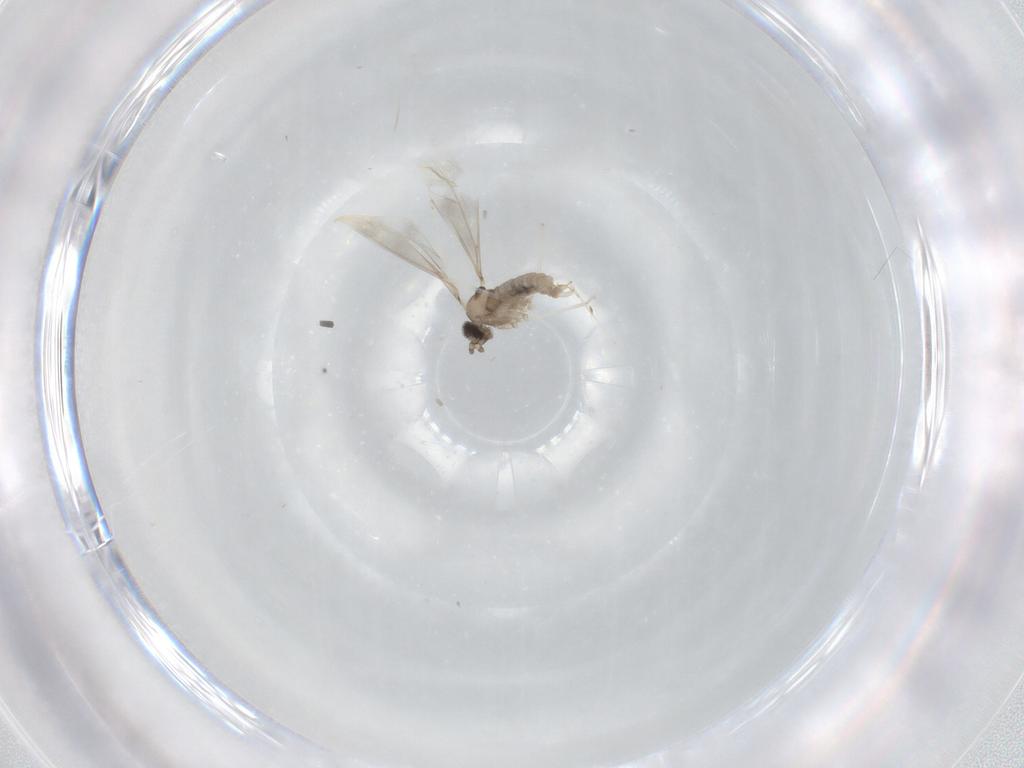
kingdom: Animalia
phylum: Arthropoda
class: Insecta
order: Diptera
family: Cecidomyiidae
